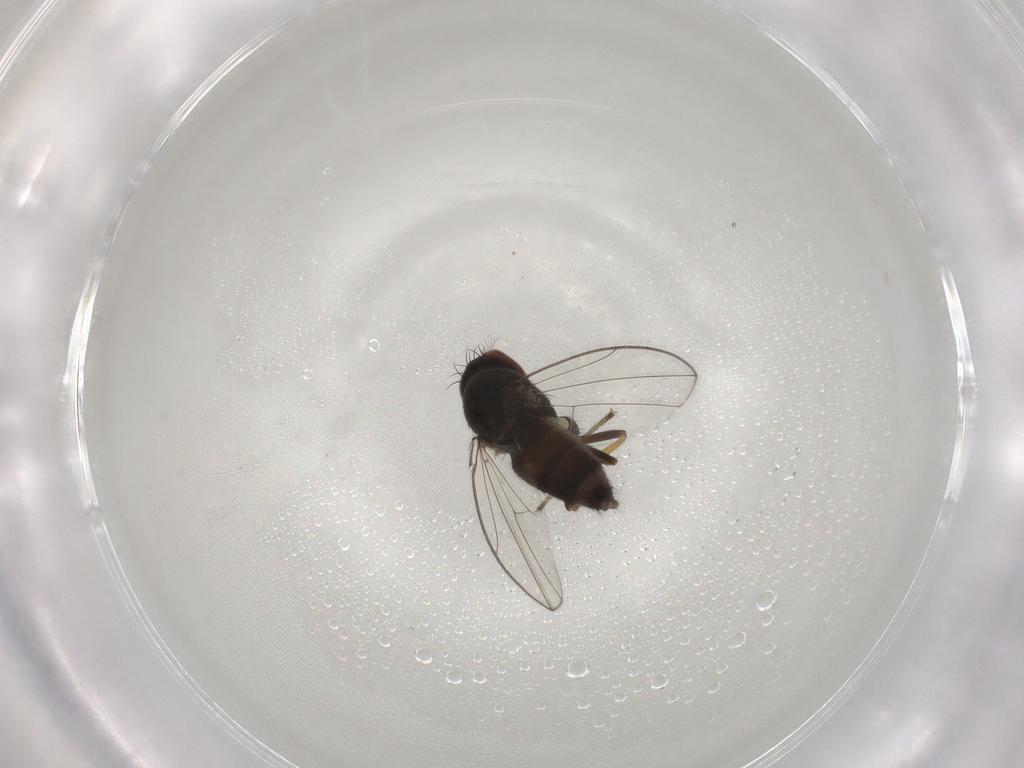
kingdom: Animalia
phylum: Arthropoda
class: Insecta
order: Diptera
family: Ephydridae
